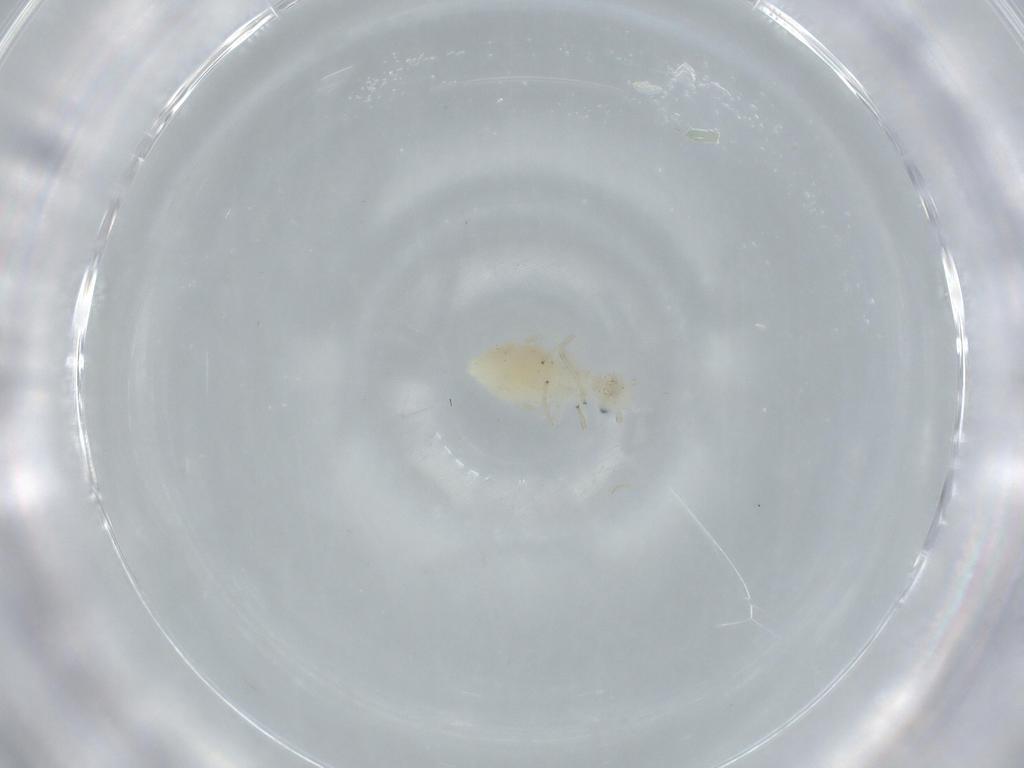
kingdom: Animalia
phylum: Arthropoda
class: Insecta
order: Psocodea
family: Caeciliusidae
